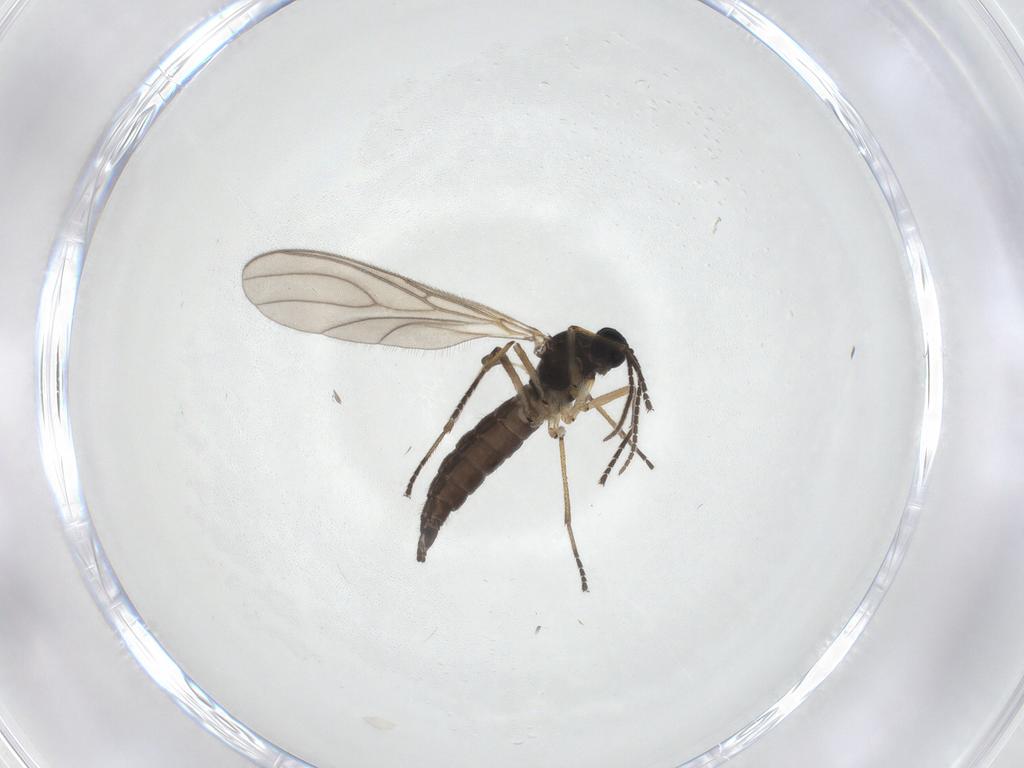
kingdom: Animalia
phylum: Arthropoda
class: Insecta
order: Diptera
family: Sciaridae
